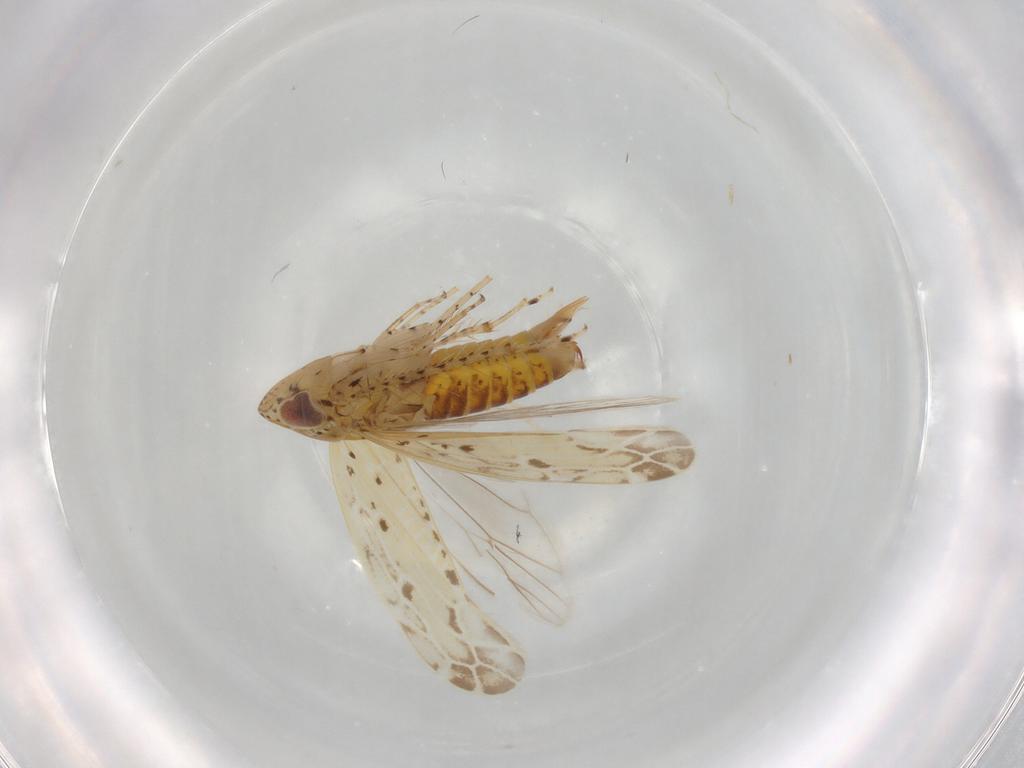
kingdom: Animalia
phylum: Arthropoda
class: Insecta
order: Hemiptera
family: Cicadellidae
